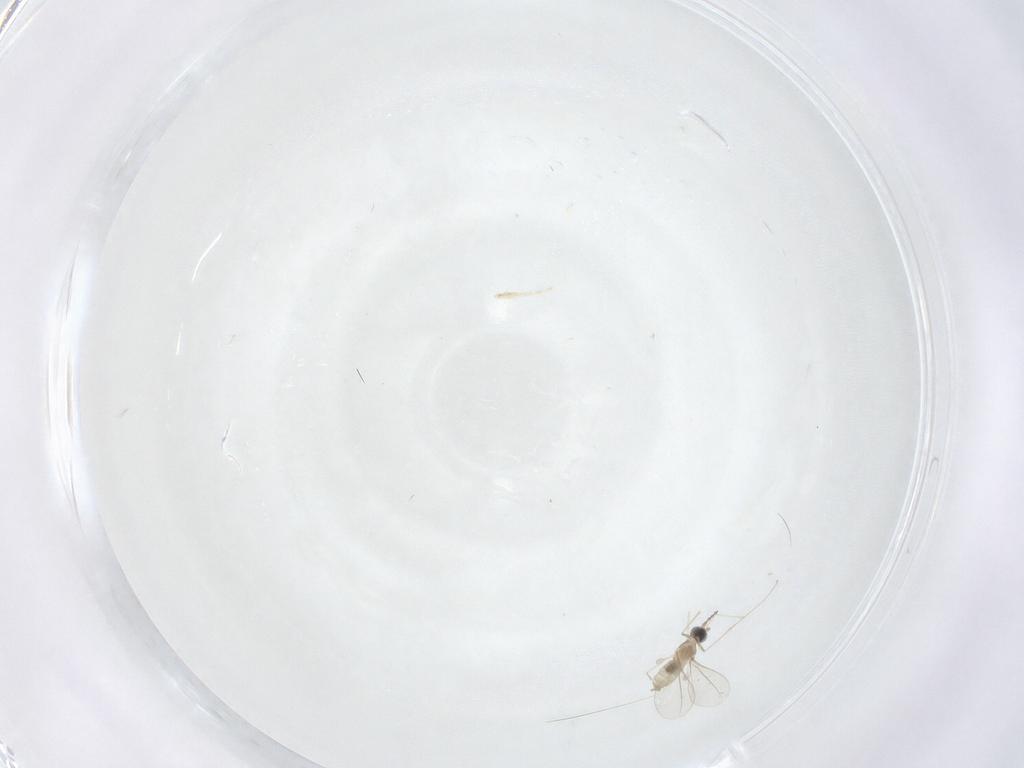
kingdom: Animalia
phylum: Arthropoda
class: Insecta
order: Diptera
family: Cecidomyiidae
